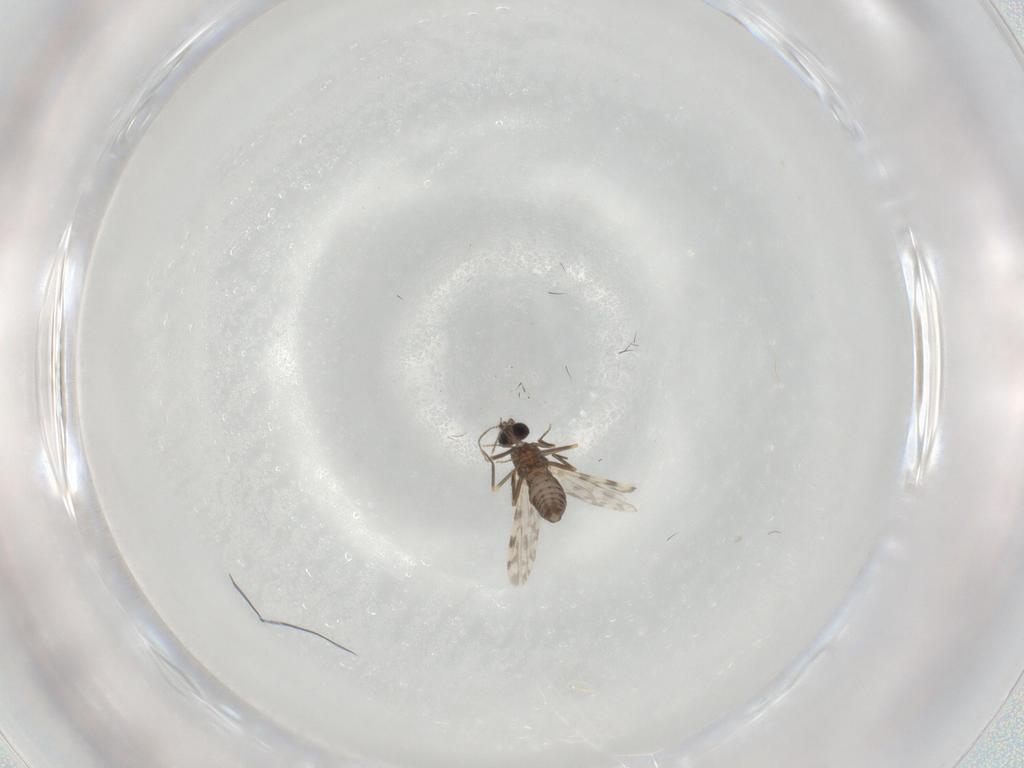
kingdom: Animalia
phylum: Arthropoda
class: Insecta
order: Diptera
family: Ceratopogonidae
